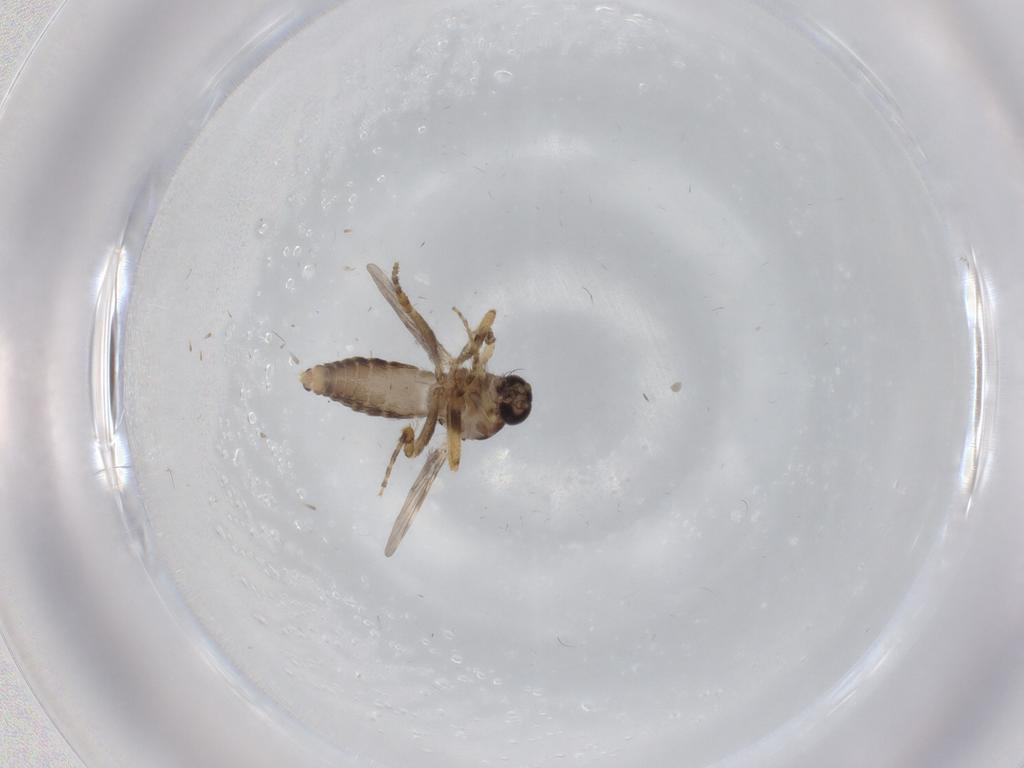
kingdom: Animalia
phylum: Arthropoda
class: Insecta
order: Diptera
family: Ceratopogonidae
